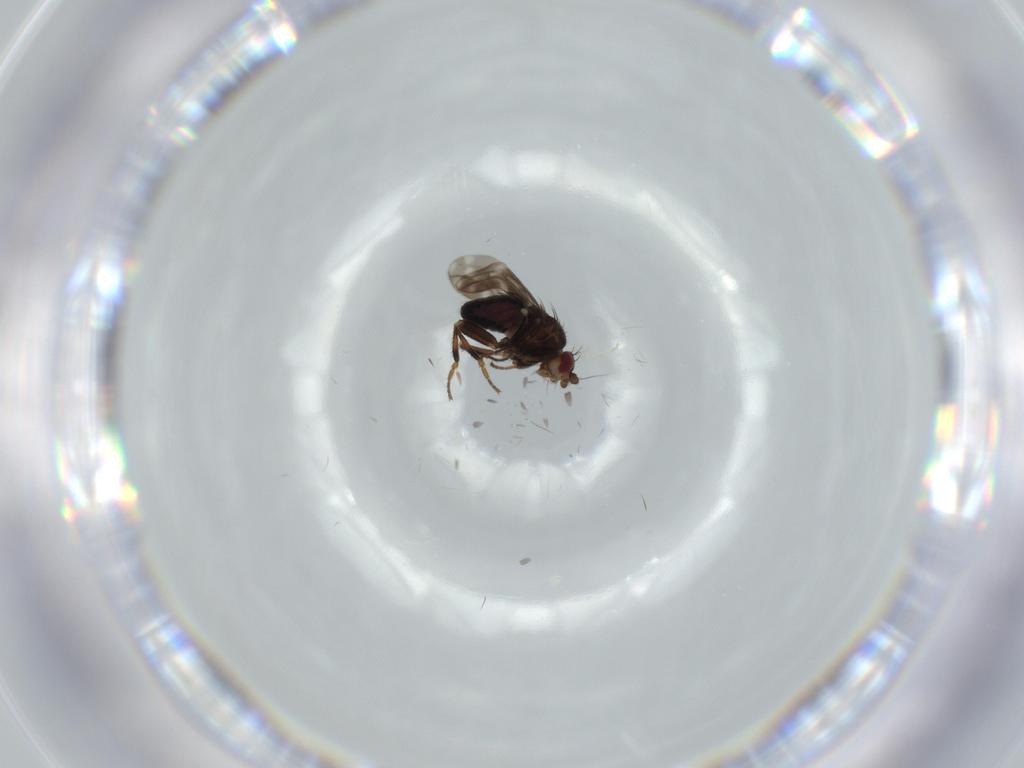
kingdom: Animalia
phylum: Arthropoda
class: Insecta
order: Diptera
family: Sphaeroceridae
